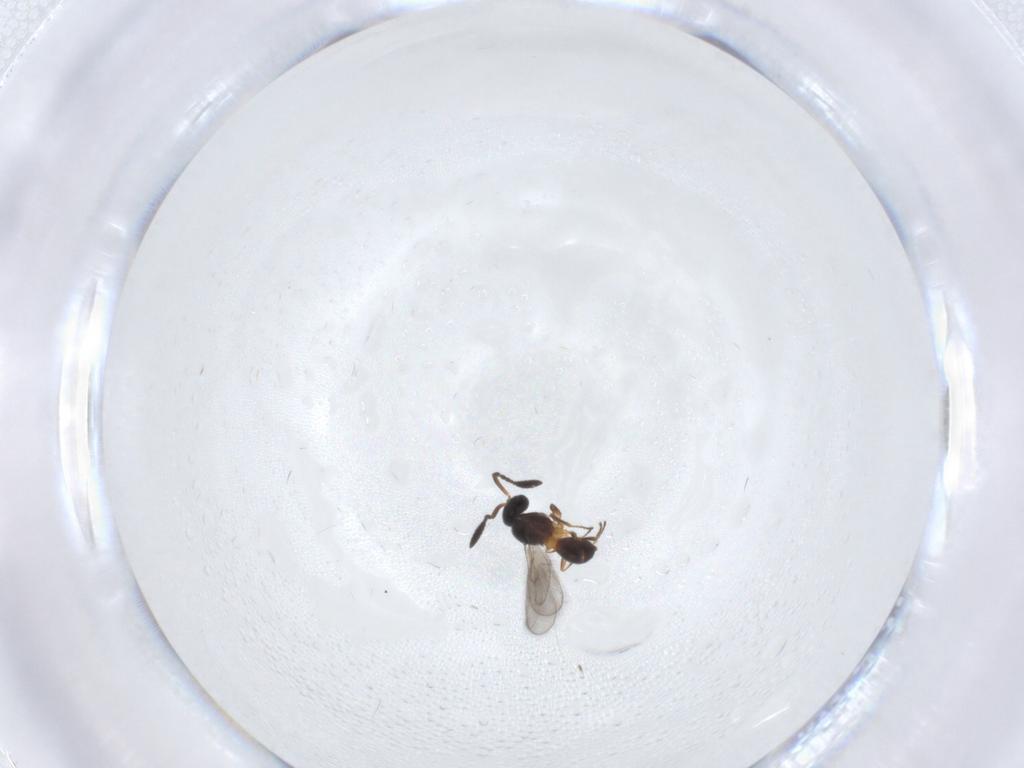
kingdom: Animalia
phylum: Arthropoda
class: Insecta
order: Hymenoptera
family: Scelionidae
